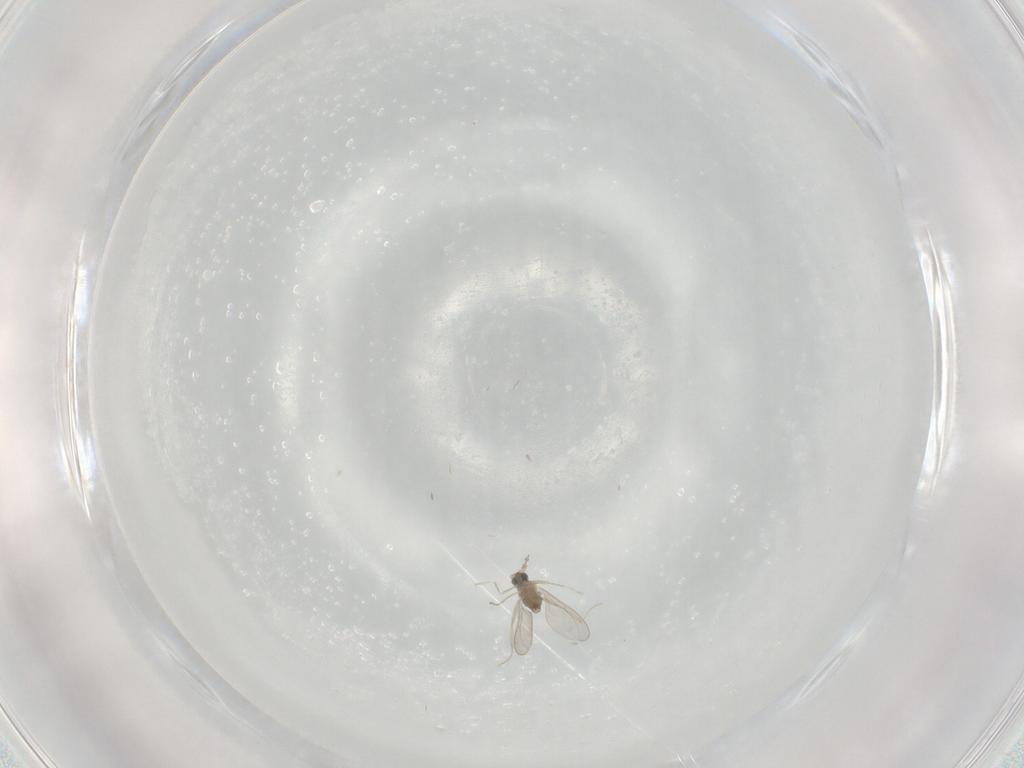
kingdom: Animalia
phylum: Arthropoda
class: Insecta
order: Diptera
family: Cecidomyiidae
